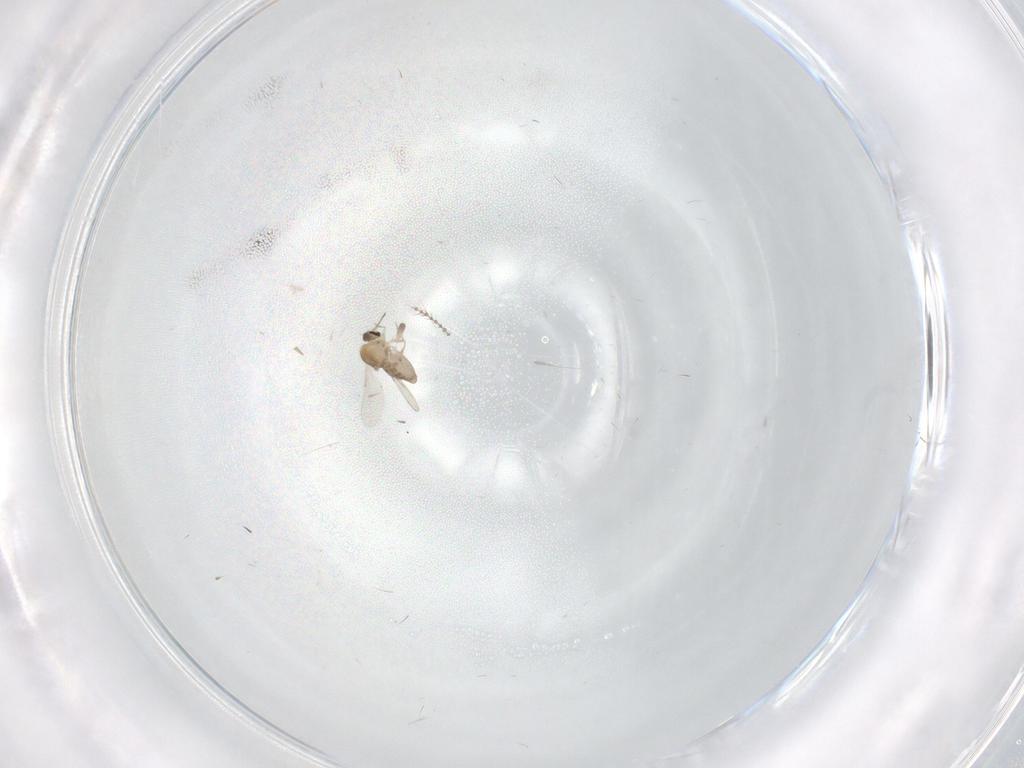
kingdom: Animalia
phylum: Arthropoda
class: Insecta
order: Diptera
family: Ceratopogonidae
